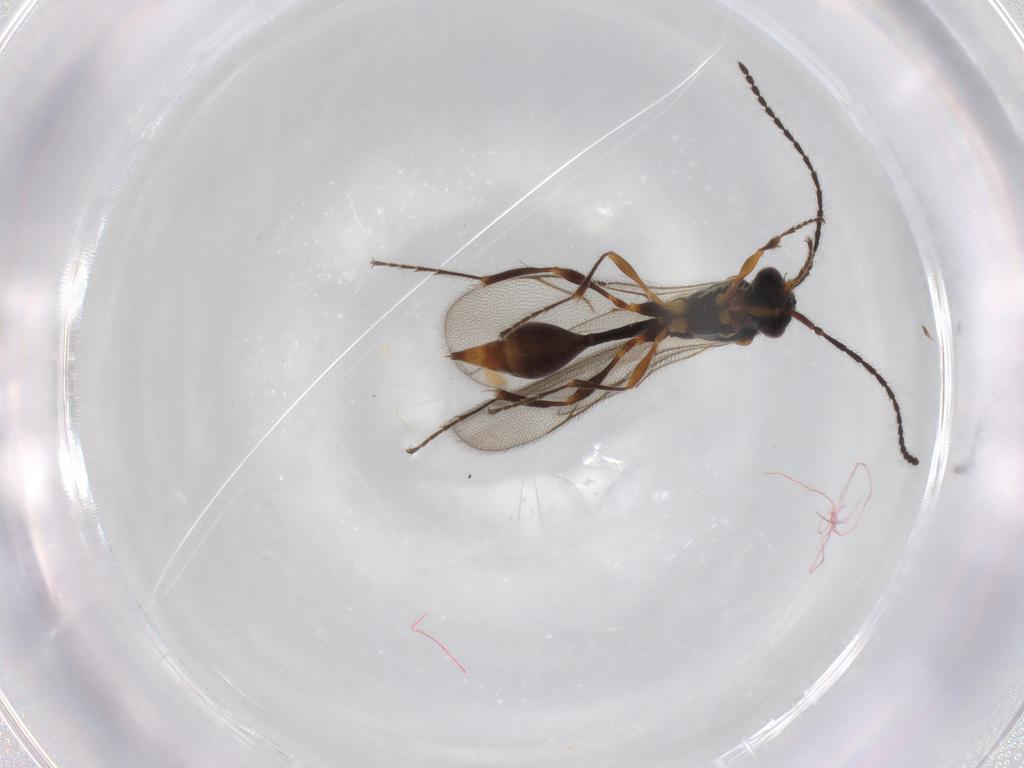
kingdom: Animalia
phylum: Arthropoda
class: Insecta
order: Hymenoptera
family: Diapriidae
